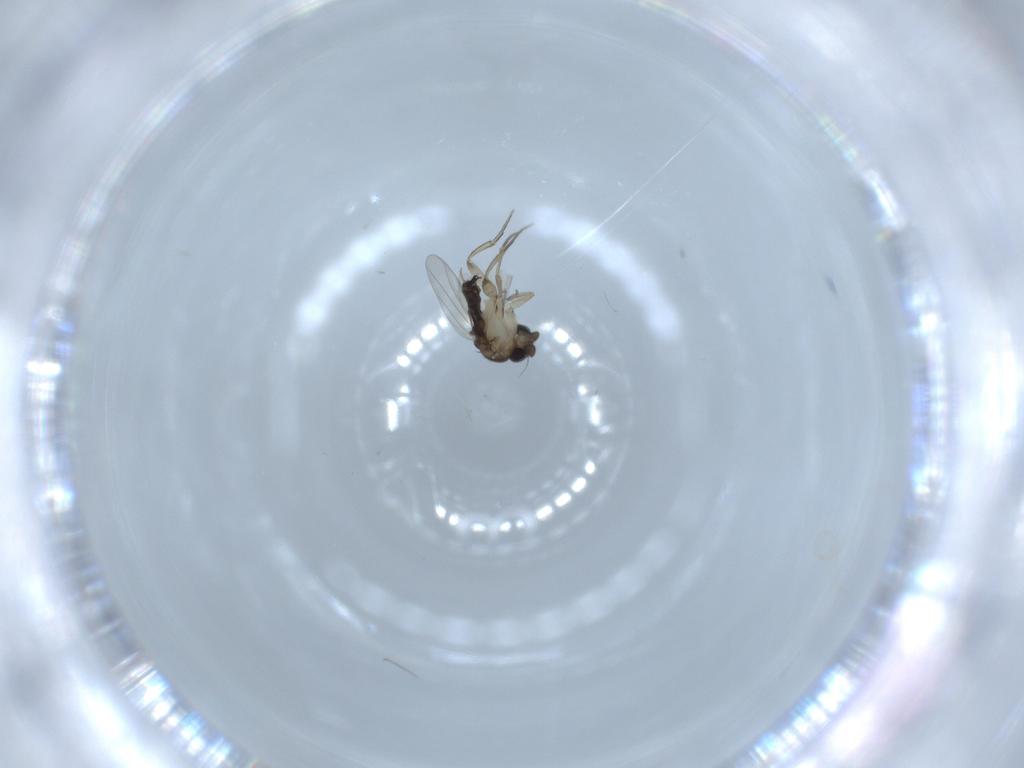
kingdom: Animalia
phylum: Arthropoda
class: Insecta
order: Diptera
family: Phoridae
